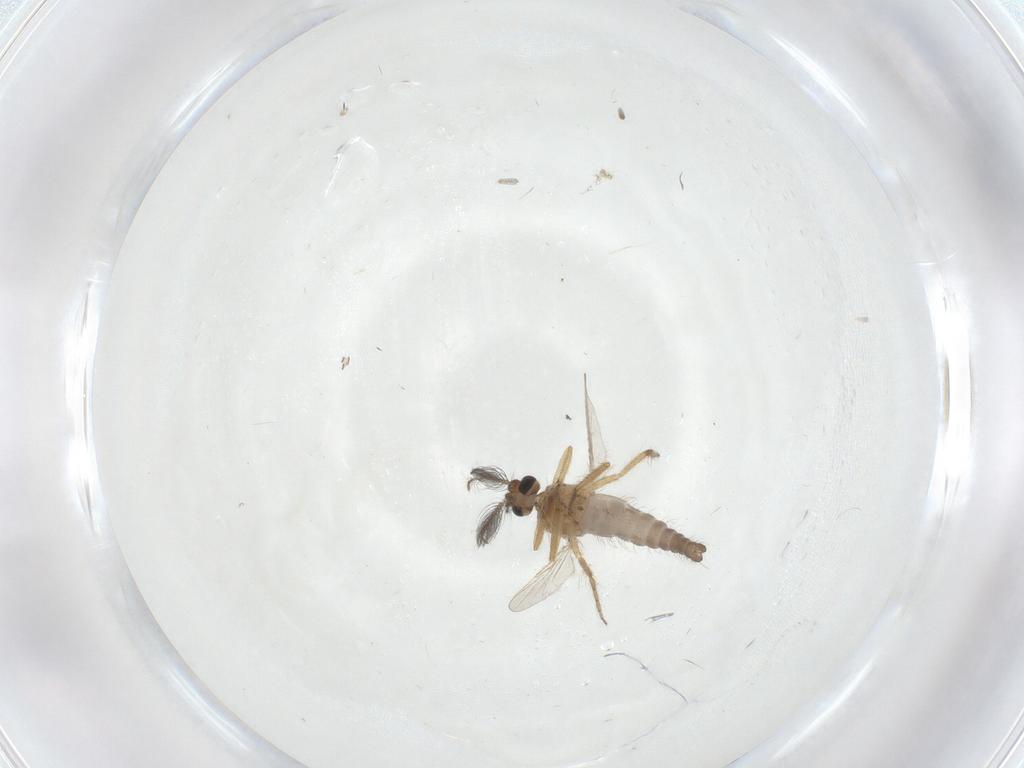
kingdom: Animalia
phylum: Arthropoda
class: Insecta
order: Diptera
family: Ceratopogonidae
